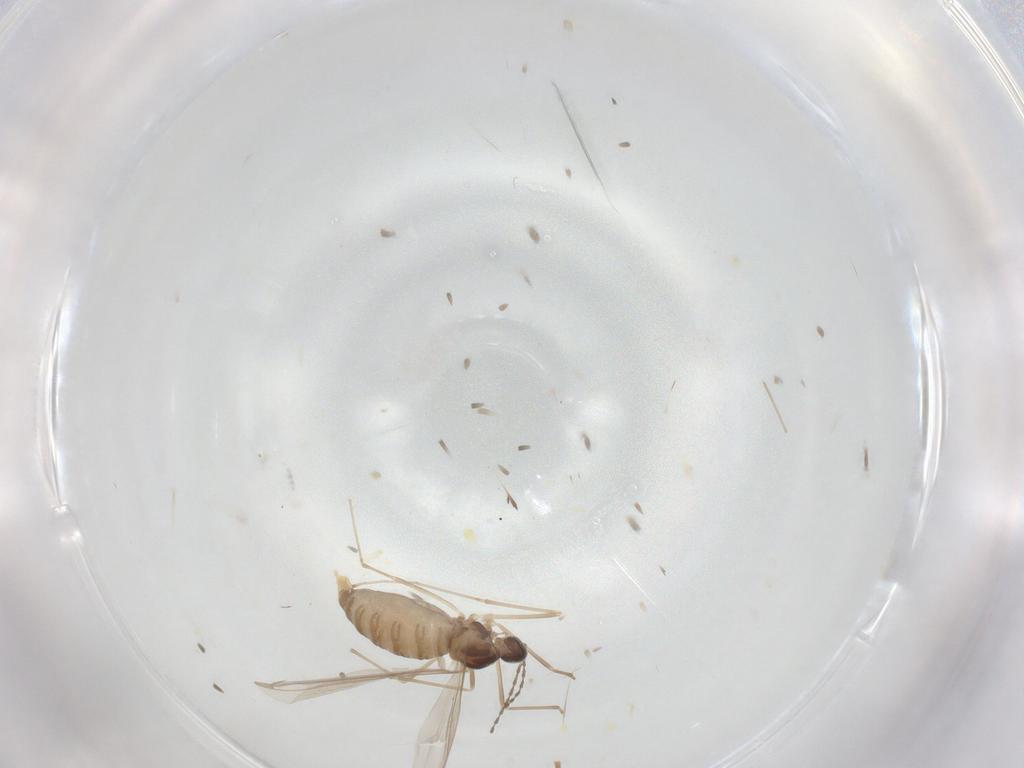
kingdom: Animalia
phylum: Arthropoda
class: Insecta
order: Diptera
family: Cecidomyiidae
